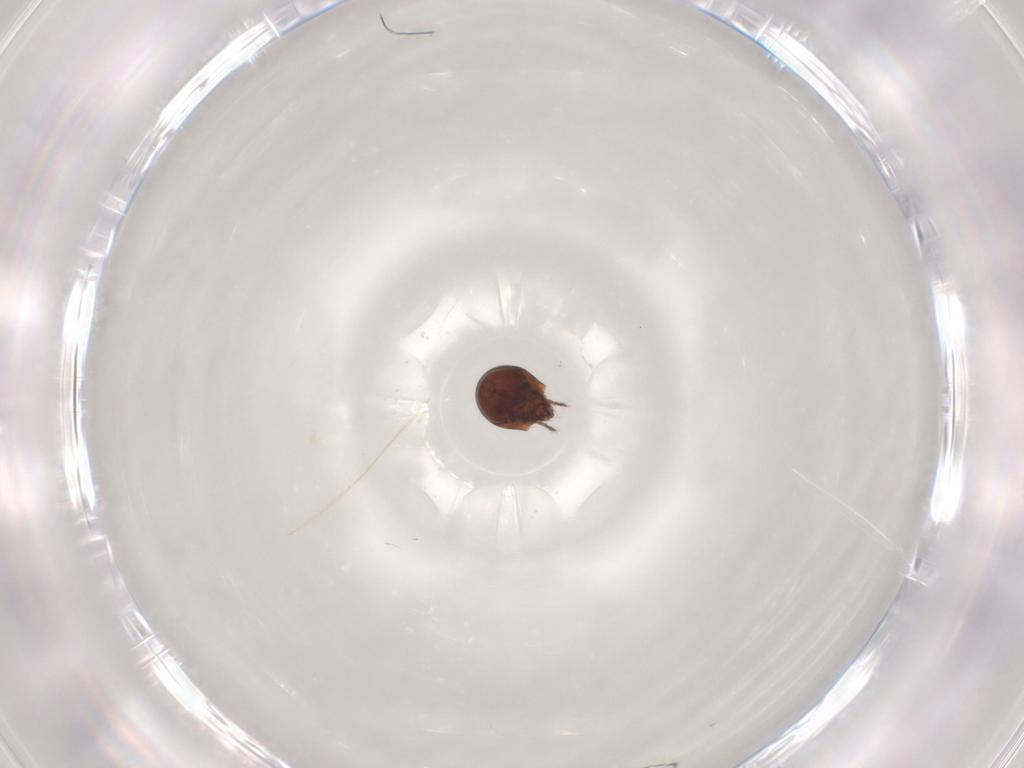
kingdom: Animalia
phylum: Arthropoda
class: Arachnida
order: Sarcoptiformes
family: Humerobatidae
